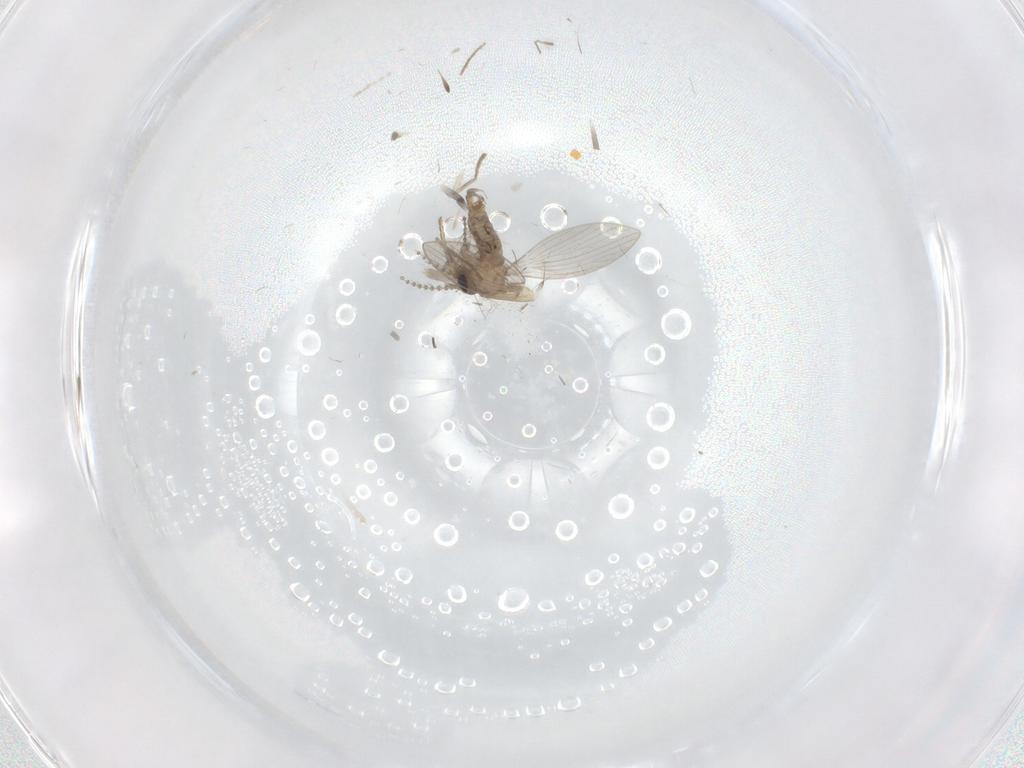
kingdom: Animalia
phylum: Arthropoda
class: Insecta
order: Diptera
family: Psychodidae
